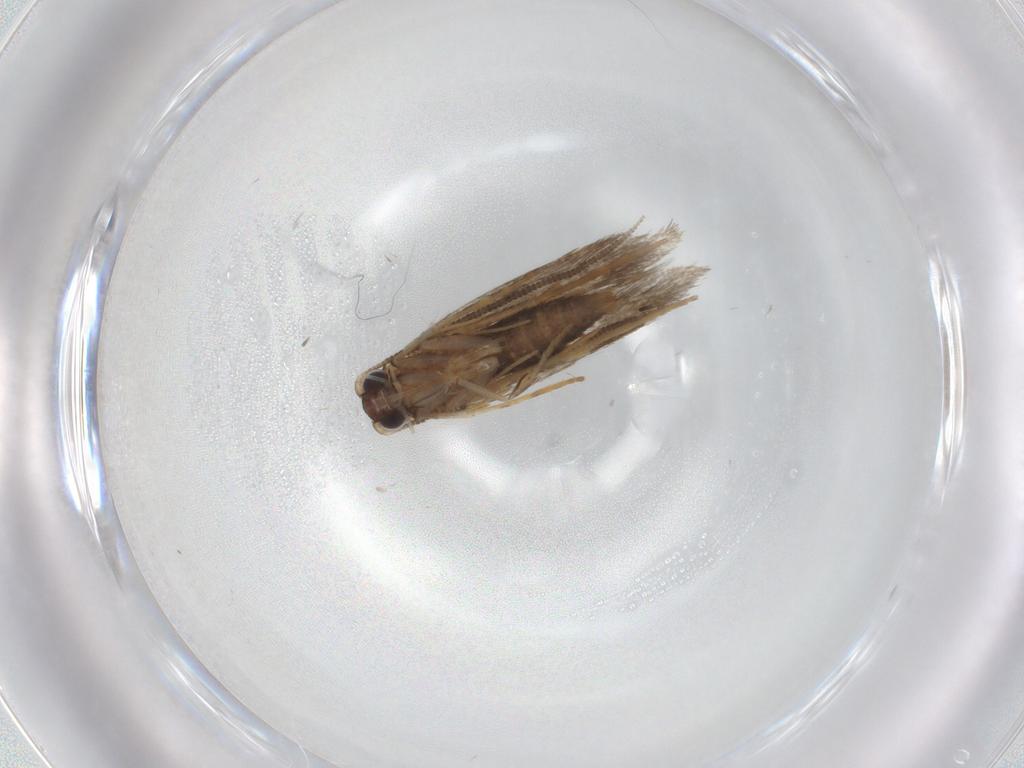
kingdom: Animalia
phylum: Arthropoda
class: Insecta
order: Lepidoptera
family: Tineidae
